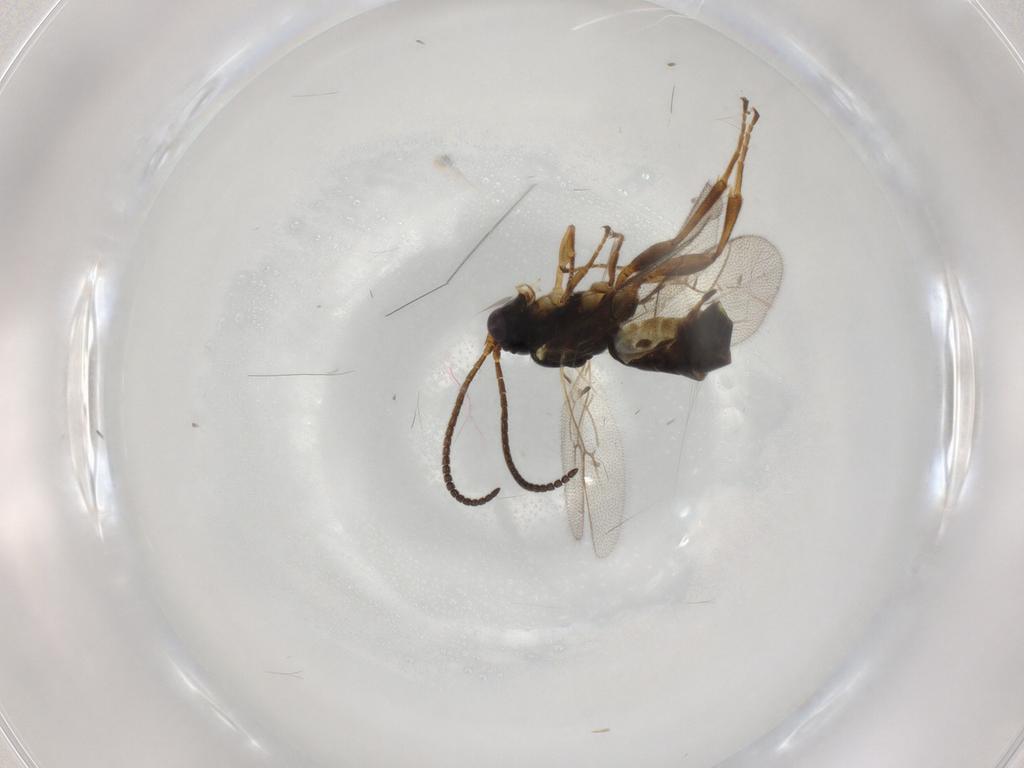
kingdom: Animalia
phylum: Arthropoda
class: Insecta
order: Hymenoptera
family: Ichneumonidae
